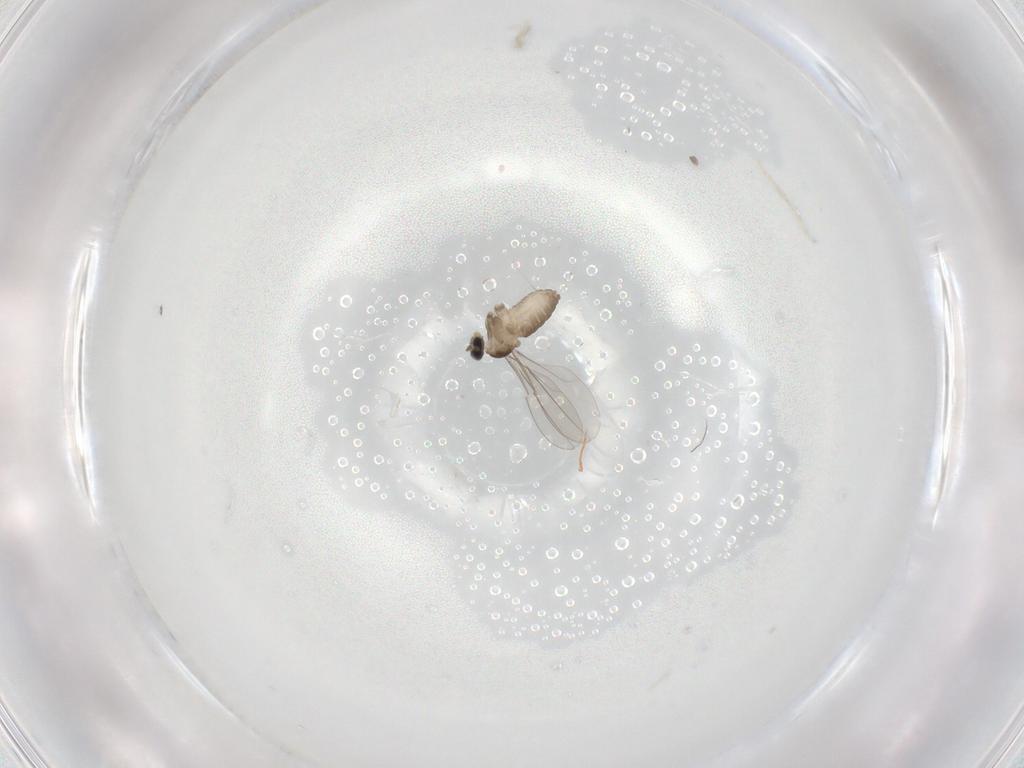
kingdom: Animalia
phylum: Arthropoda
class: Insecta
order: Diptera
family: Cecidomyiidae
